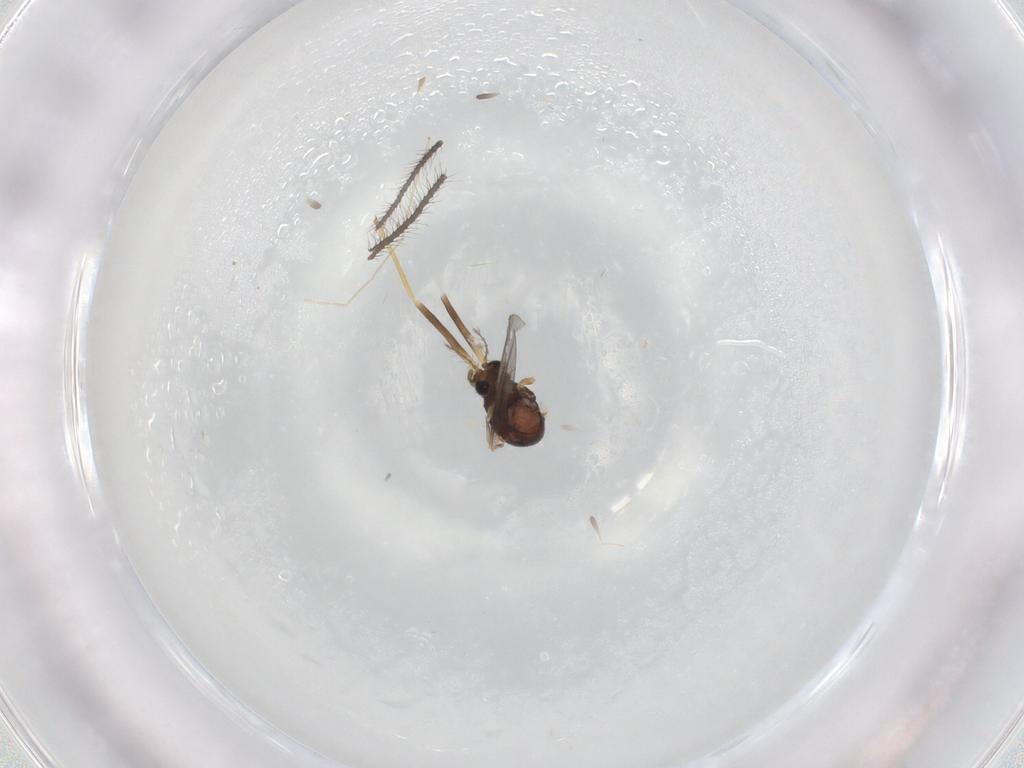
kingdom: Animalia
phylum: Arthropoda
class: Insecta
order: Diptera
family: Chironomidae
